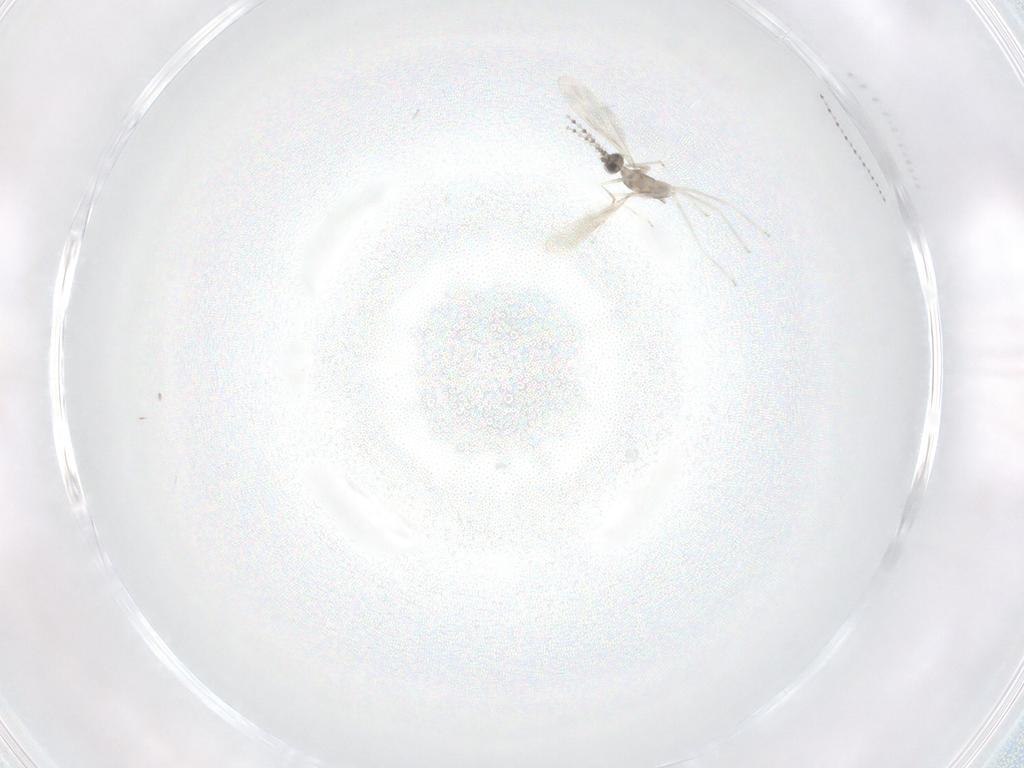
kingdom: Animalia
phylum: Arthropoda
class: Insecta
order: Diptera
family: Cecidomyiidae
